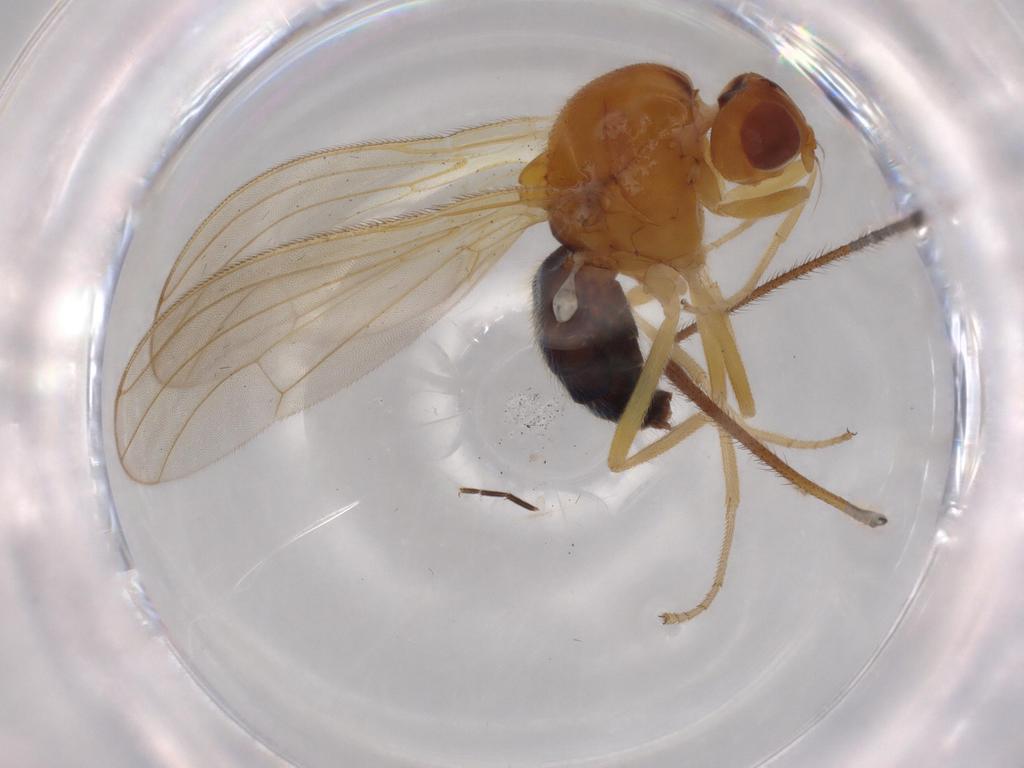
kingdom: Animalia
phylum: Arthropoda
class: Insecta
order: Diptera
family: Limoniidae
